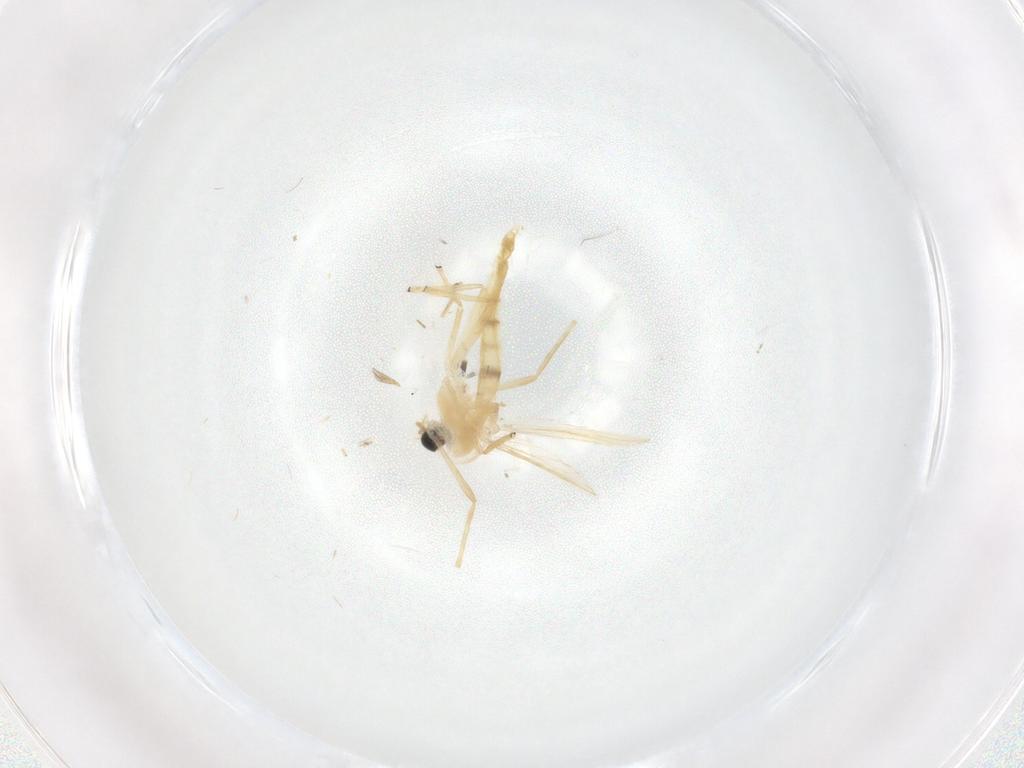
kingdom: Animalia
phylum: Arthropoda
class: Insecta
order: Diptera
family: Chironomidae
